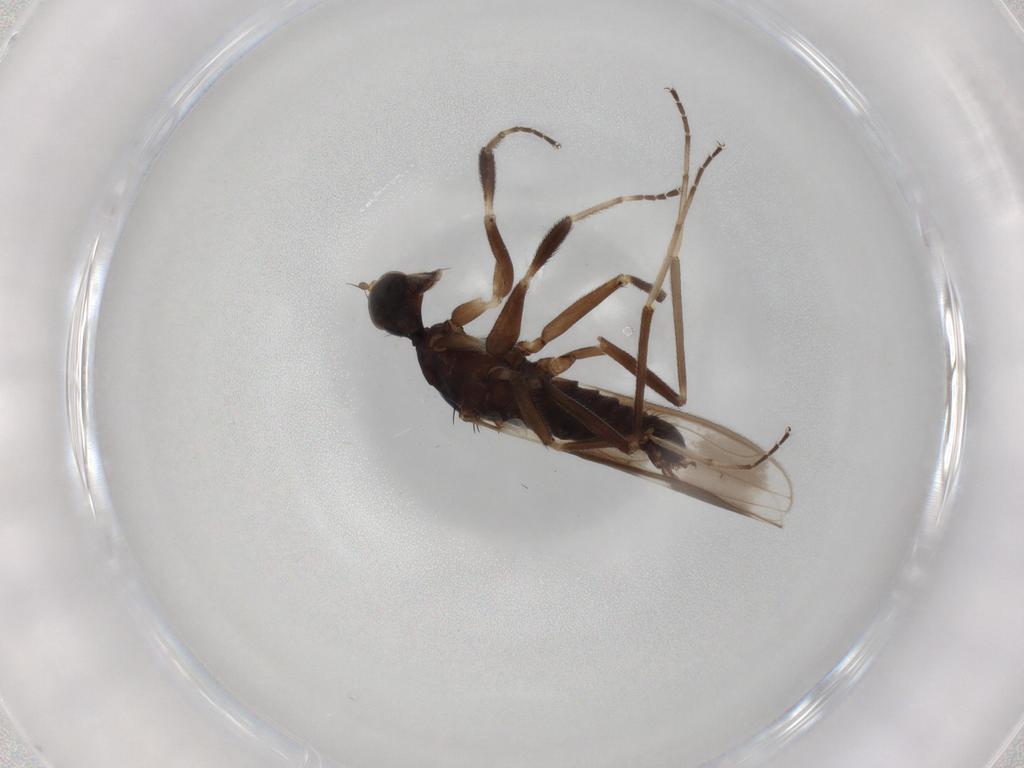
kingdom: Animalia
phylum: Arthropoda
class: Insecta
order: Diptera
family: Hybotidae
